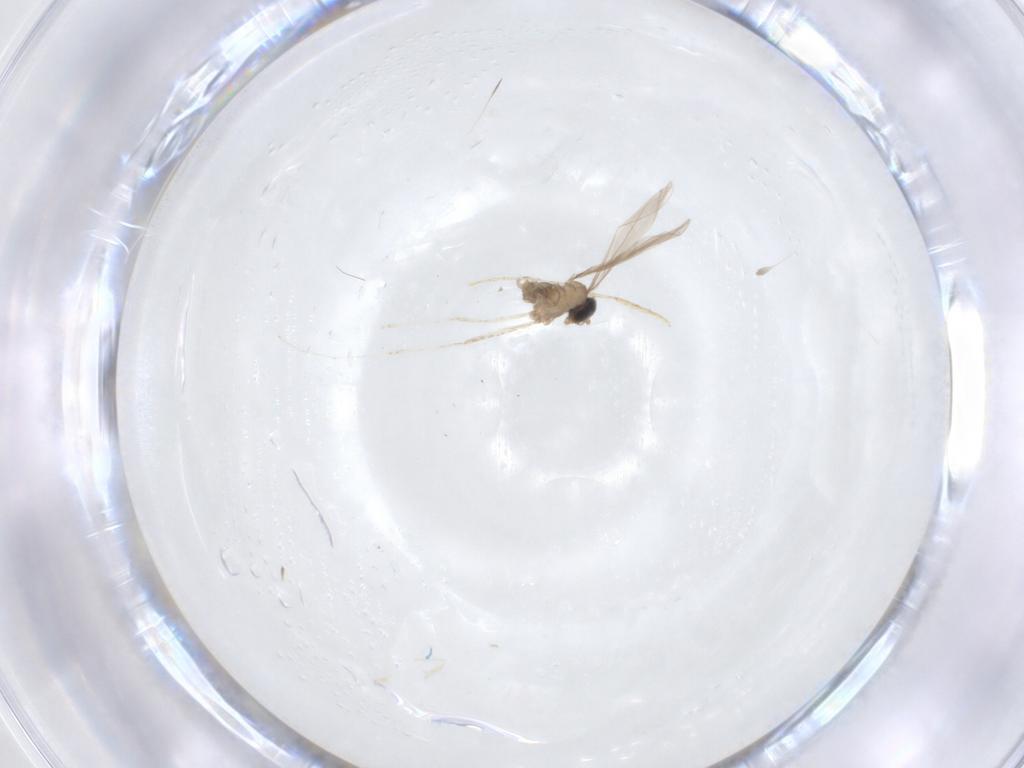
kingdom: Animalia
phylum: Arthropoda
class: Insecta
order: Diptera
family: Psychodidae
